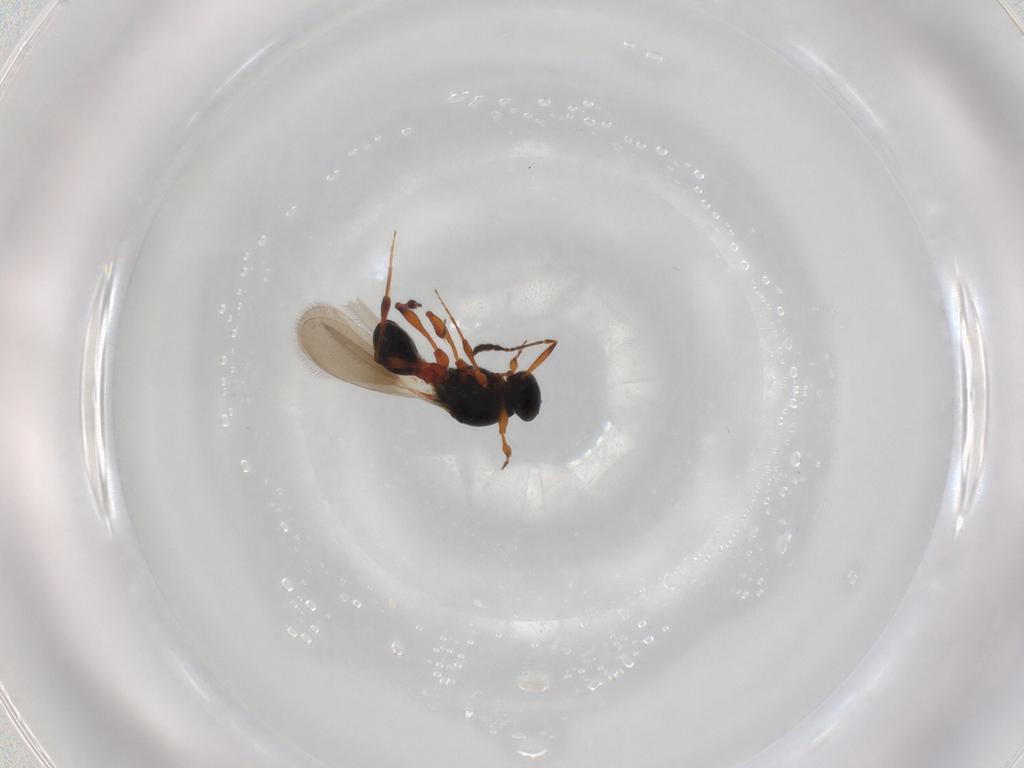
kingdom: Animalia
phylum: Arthropoda
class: Insecta
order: Hymenoptera
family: Platygastridae
